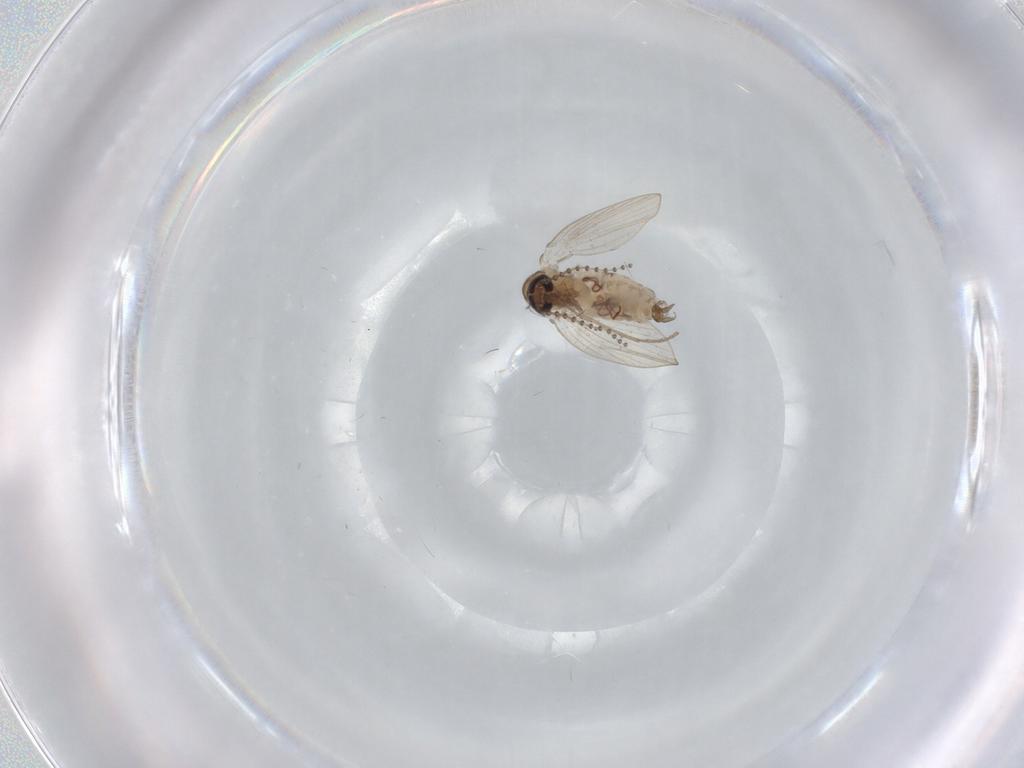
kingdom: Animalia
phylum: Arthropoda
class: Insecta
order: Diptera
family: Psychodidae
